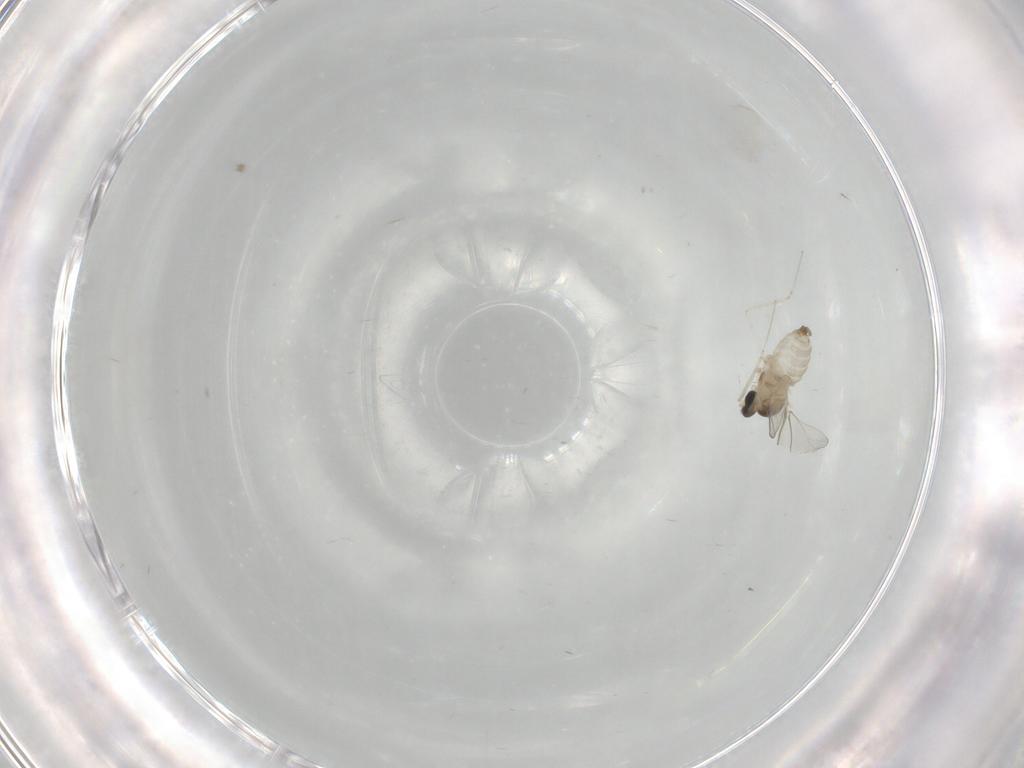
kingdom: Animalia
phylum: Arthropoda
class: Insecta
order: Diptera
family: Cecidomyiidae
